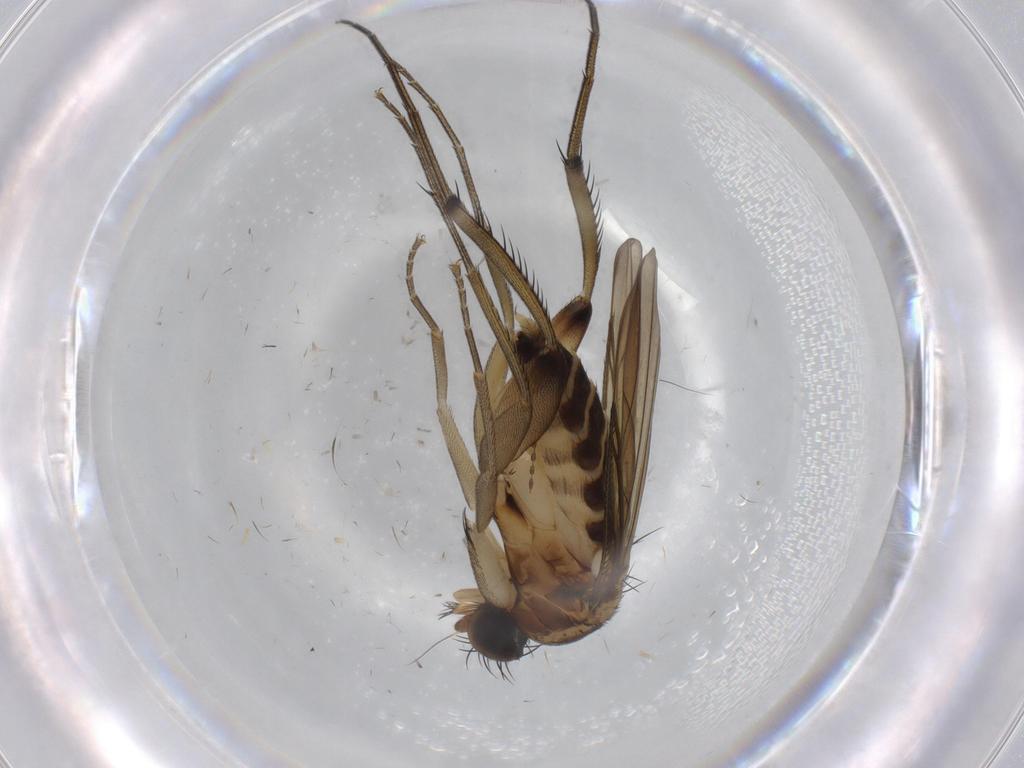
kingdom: Animalia
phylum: Arthropoda
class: Insecta
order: Diptera
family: Phoridae
